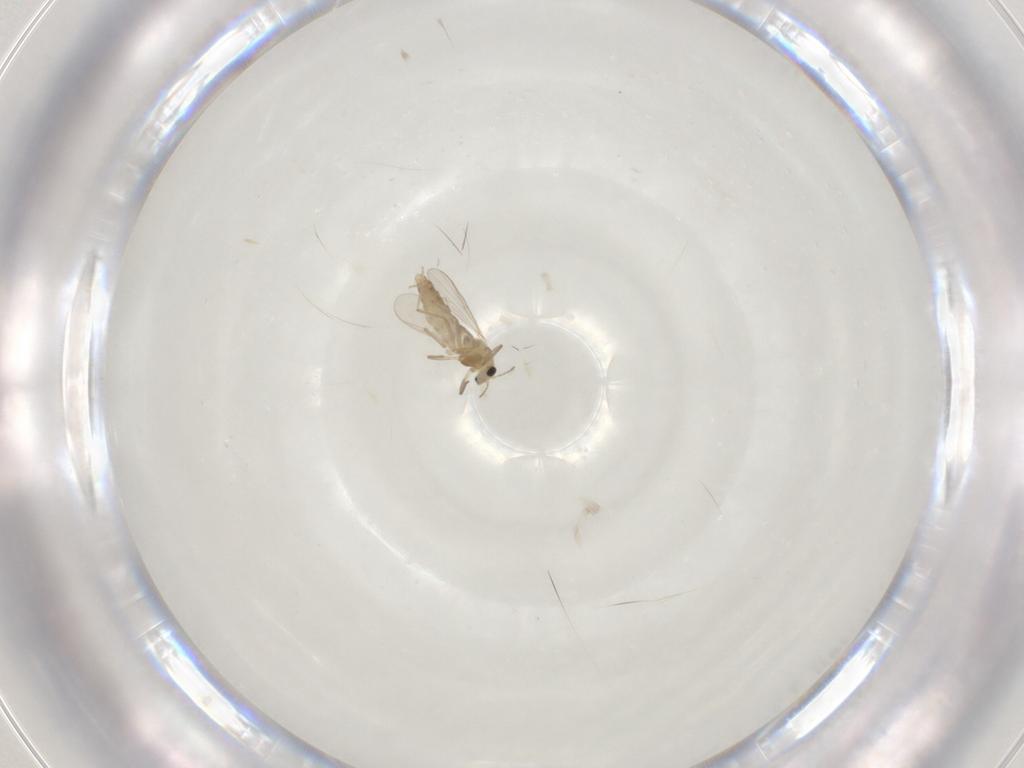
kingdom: Animalia
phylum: Arthropoda
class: Insecta
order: Diptera
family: Chironomidae
